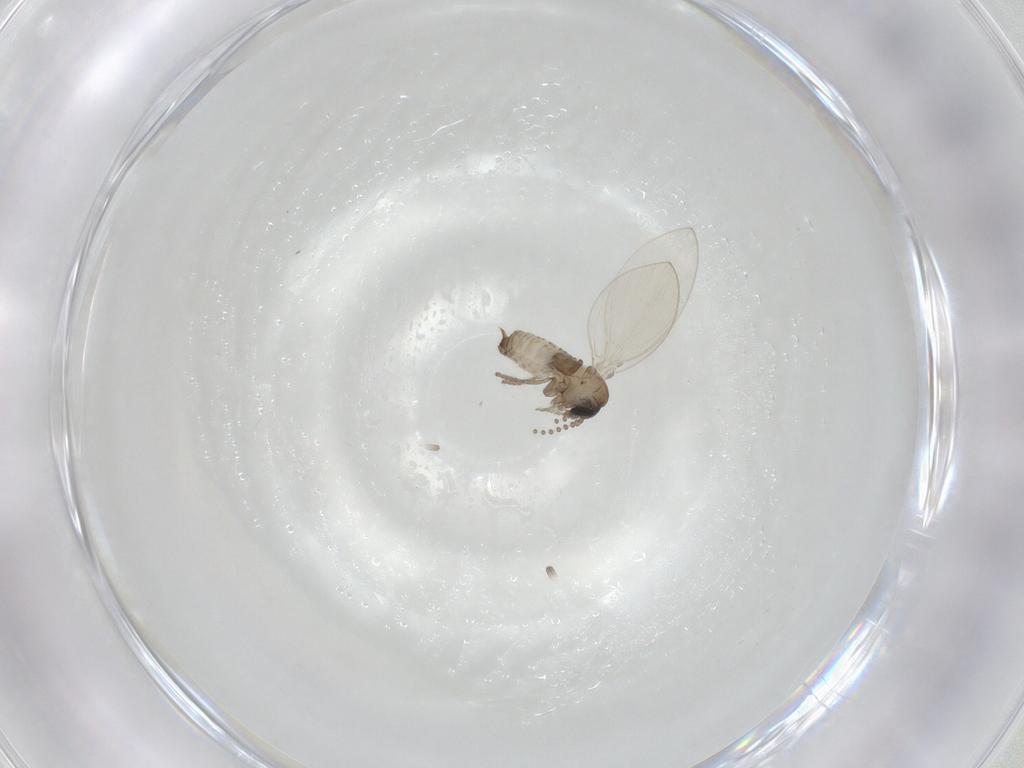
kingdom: Animalia
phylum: Arthropoda
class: Insecta
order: Diptera
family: Psychodidae
